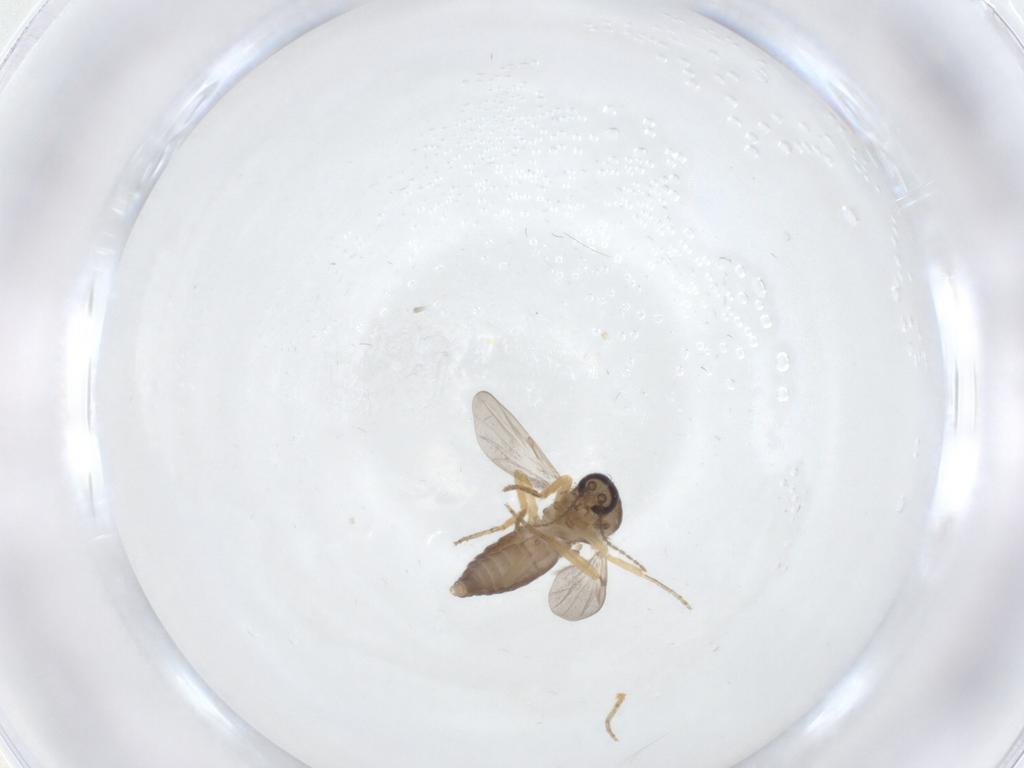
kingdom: Animalia
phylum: Arthropoda
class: Insecta
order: Diptera
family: Ceratopogonidae
